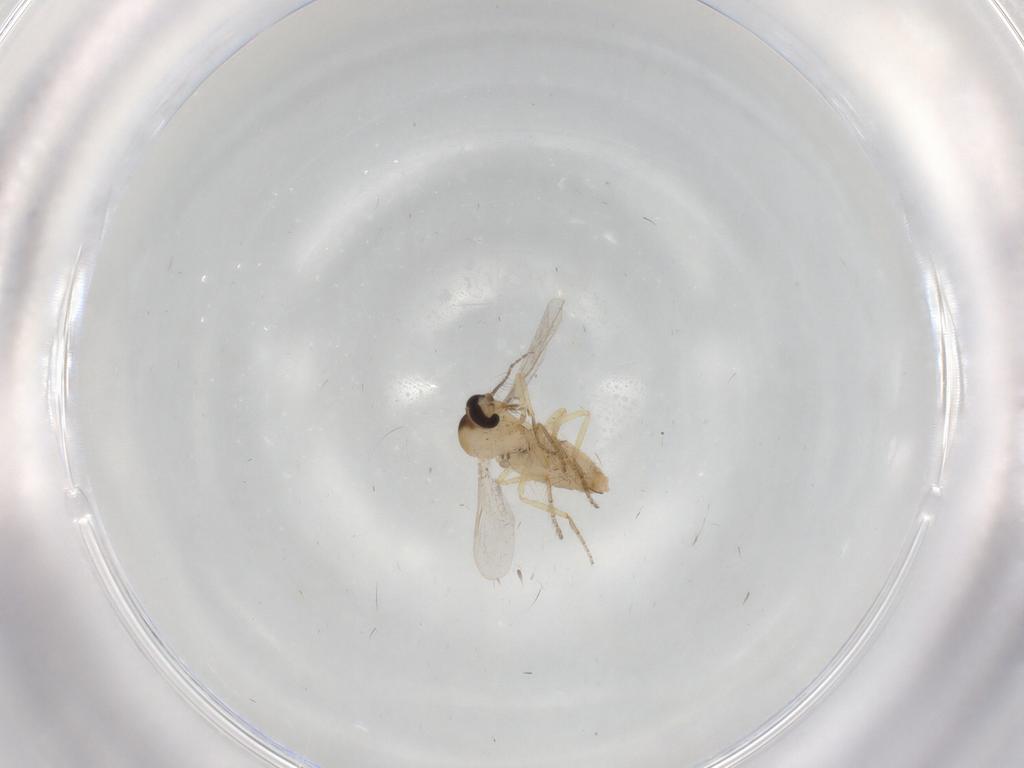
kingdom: Animalia
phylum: Arthropoda
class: Insecta
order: Diptera
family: Ceratopogonidae
